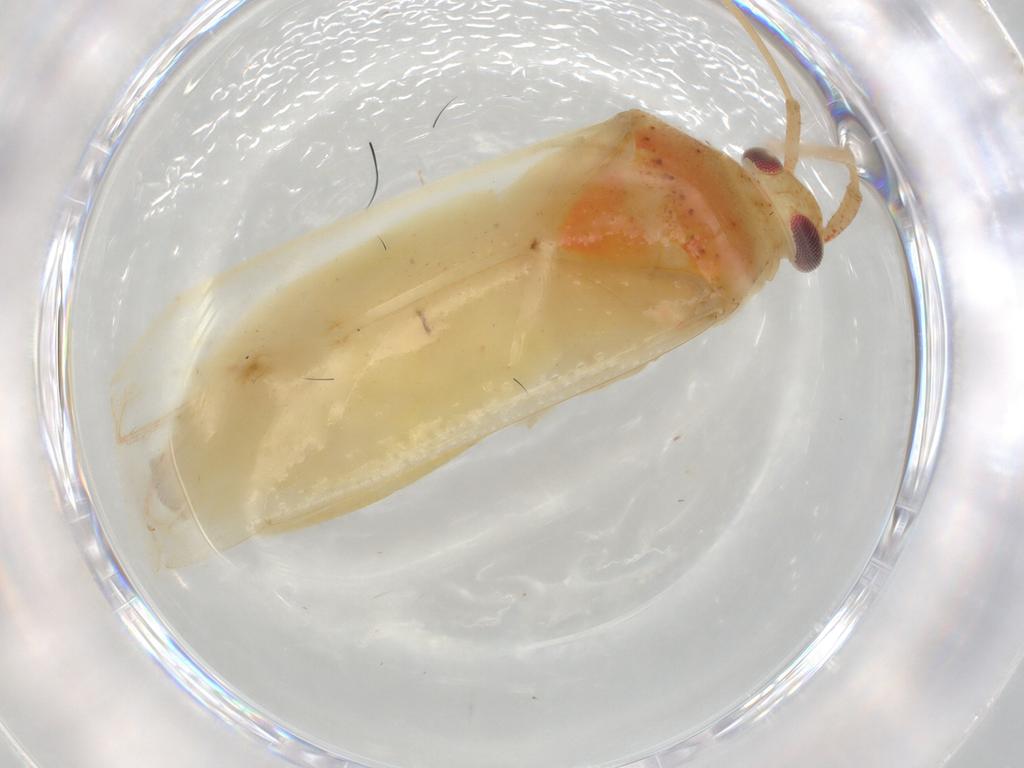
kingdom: Animalia
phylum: Arthropoda
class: Insecta
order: Hemiptera
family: Miridae
